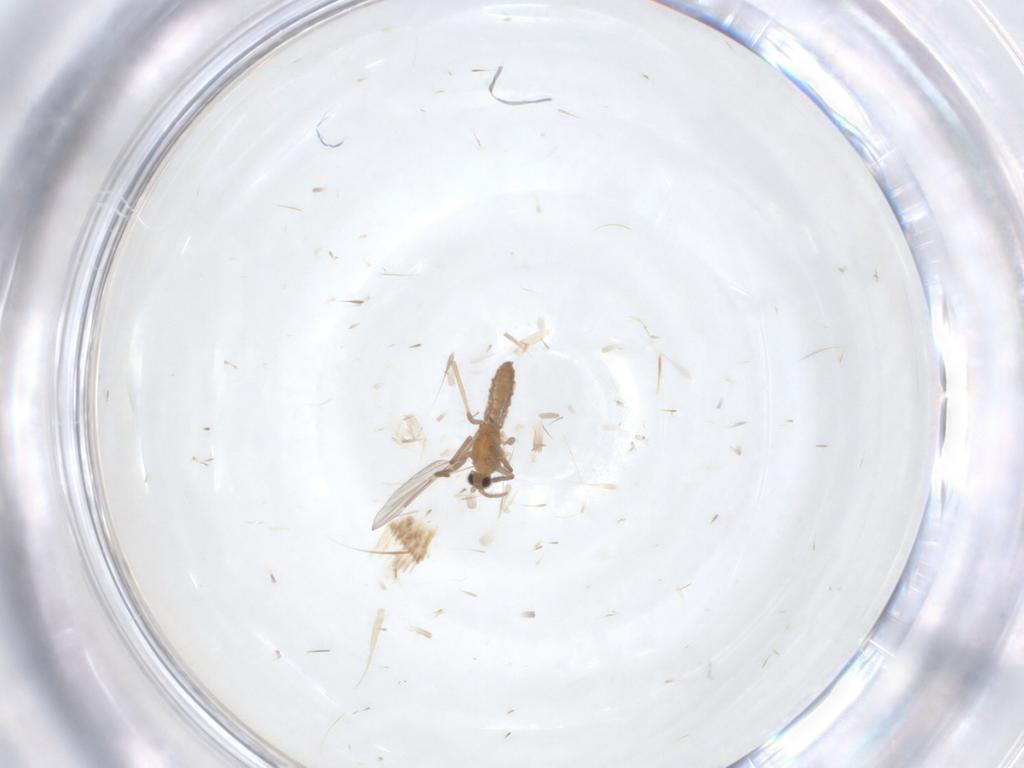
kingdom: Animalia
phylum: Arthropoda
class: Insecta
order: Diptera
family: Cecidomyiidae
